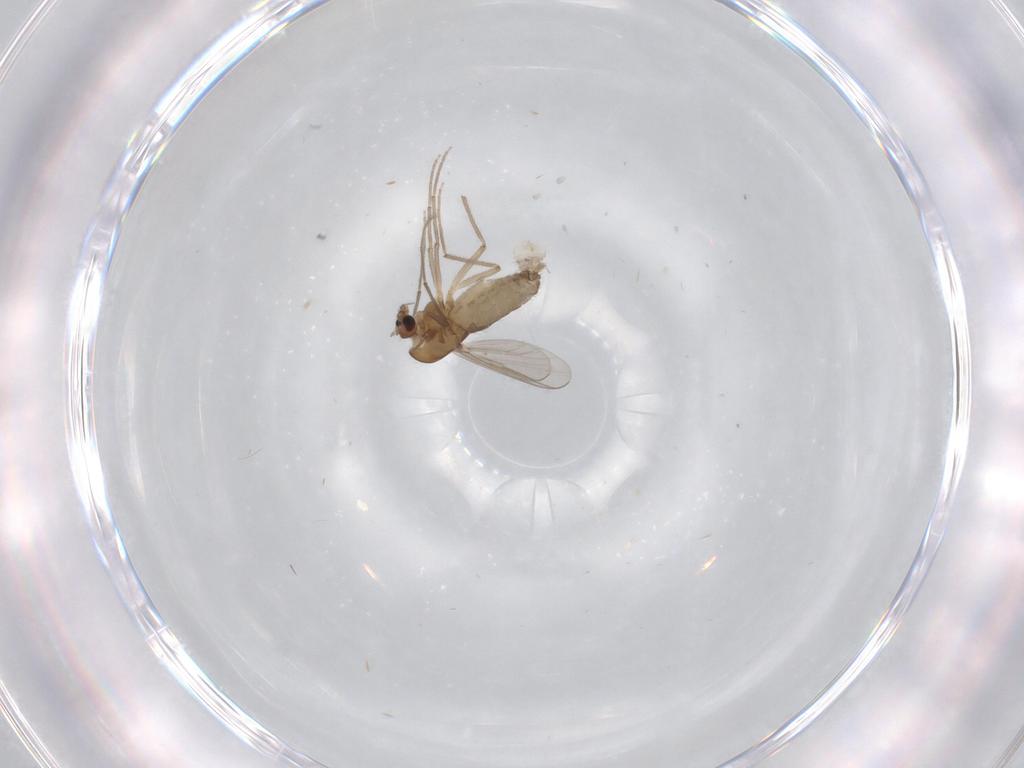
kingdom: Animalia
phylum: Arthropoda
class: Insecta
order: Diptera
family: Chironomidae
